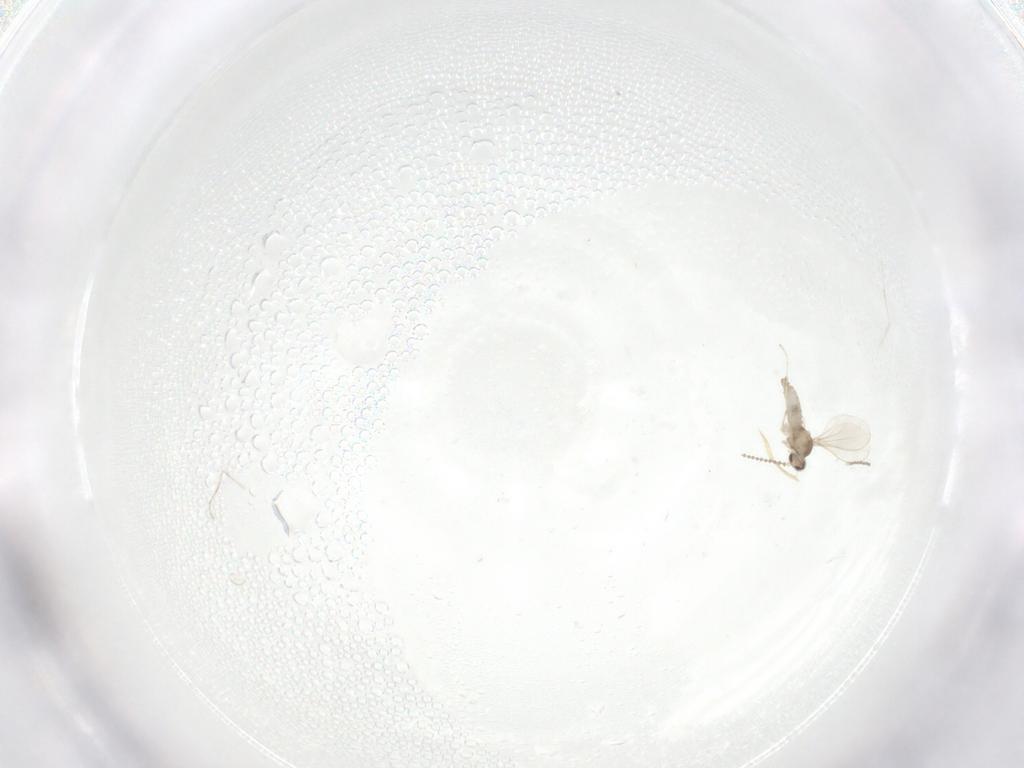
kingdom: Animalia
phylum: Arthropoda
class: Insecta
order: Diptera
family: Cecidomyiidae
